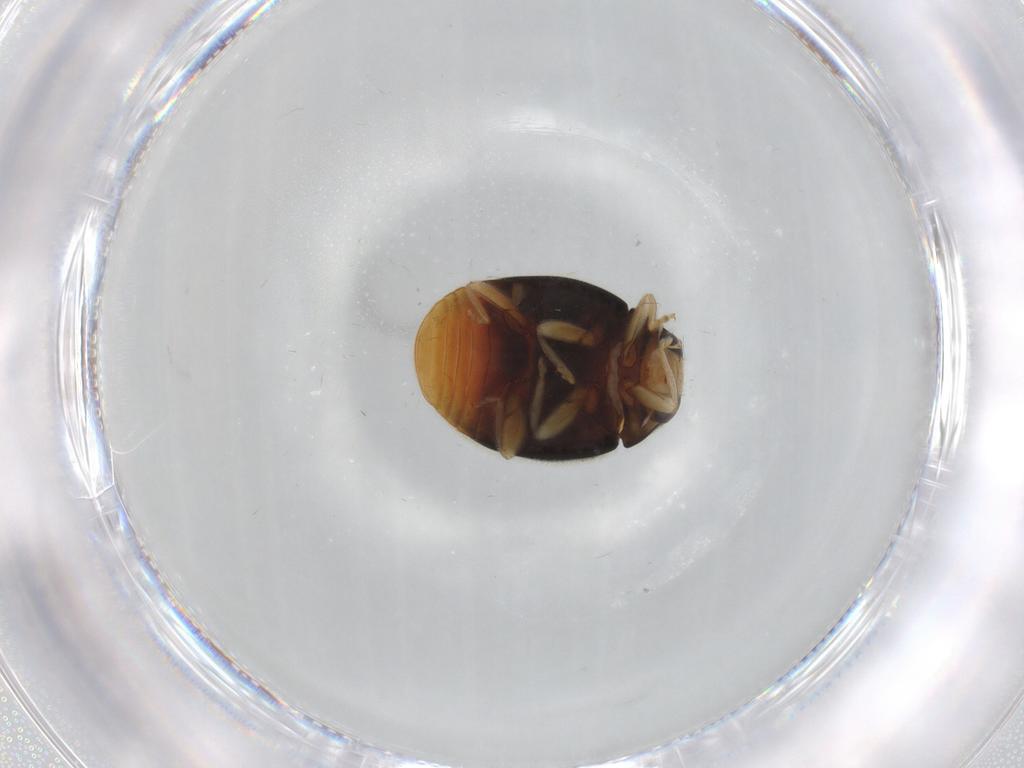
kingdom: Animalia
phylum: Arthropoda
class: Insecta
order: Coleoptera
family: Coccinellidae
